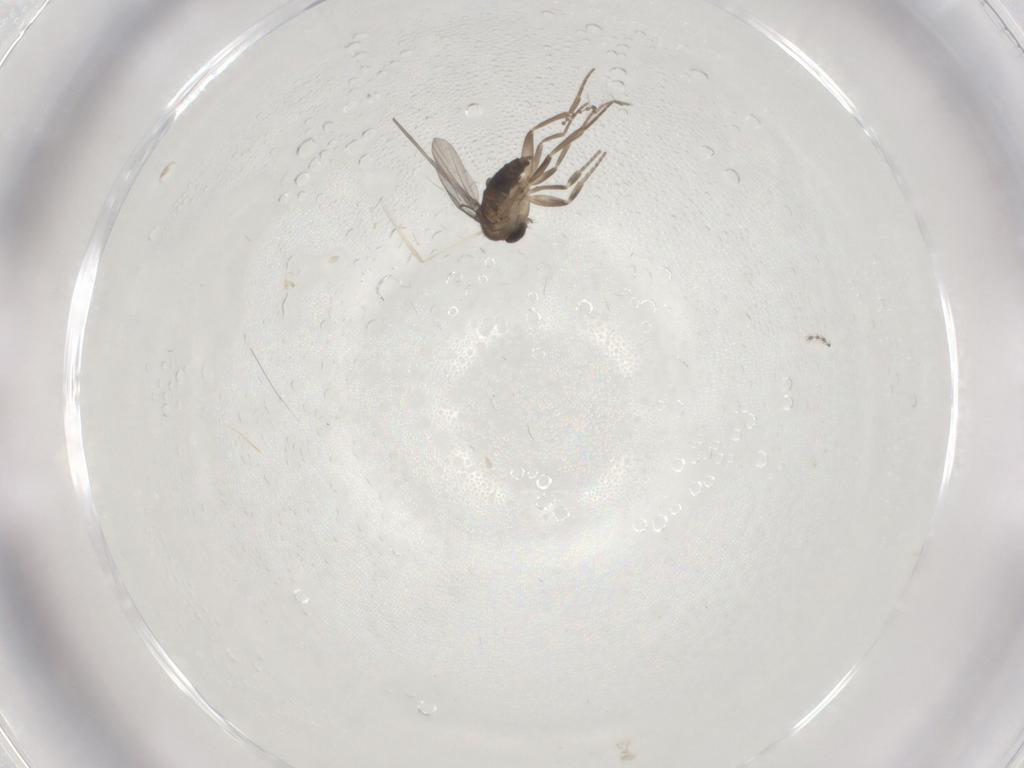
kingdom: Animalia
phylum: Arthropoda
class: Insecta
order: Diptera
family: Cecidomyiidae
